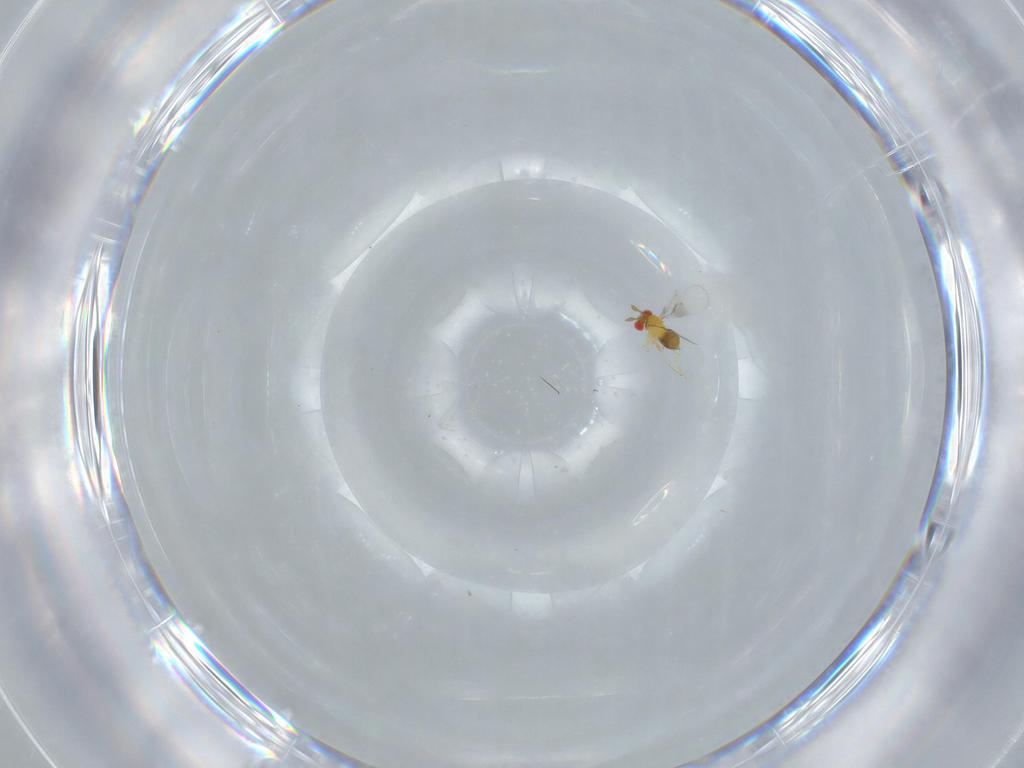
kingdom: Animalia
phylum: Arthropoda
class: Insecta
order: Hymenoptera
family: Trichogrammatidae
